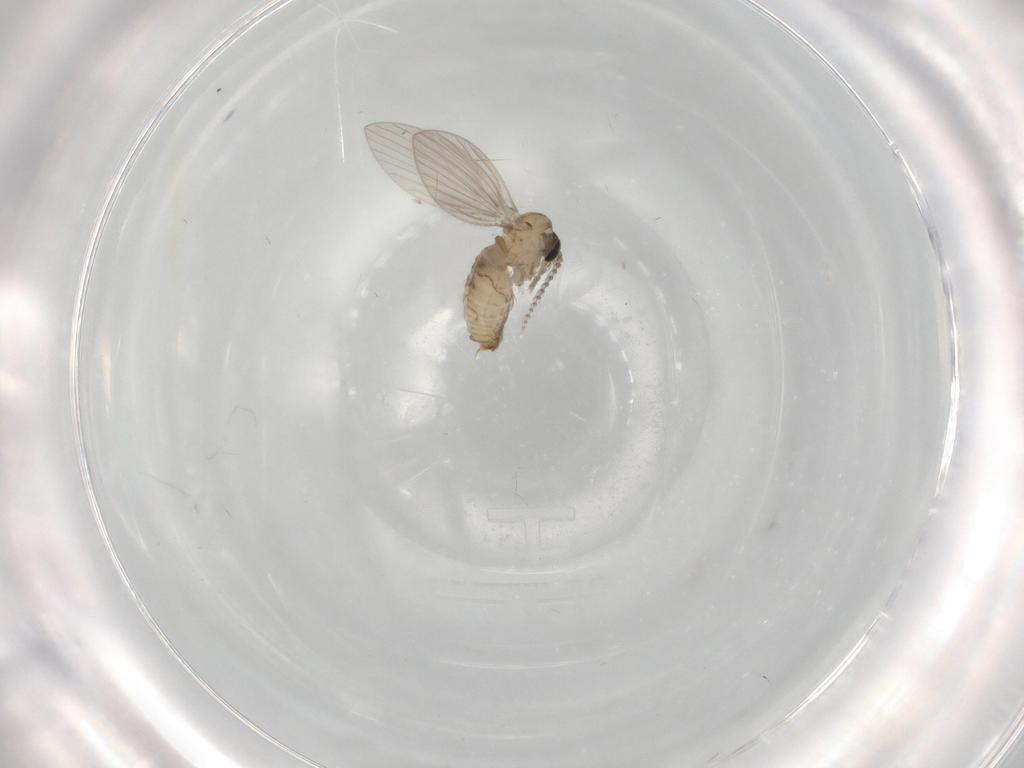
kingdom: Animalia
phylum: Arthropoda
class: Insecta
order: Diptera
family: Psychodidae
